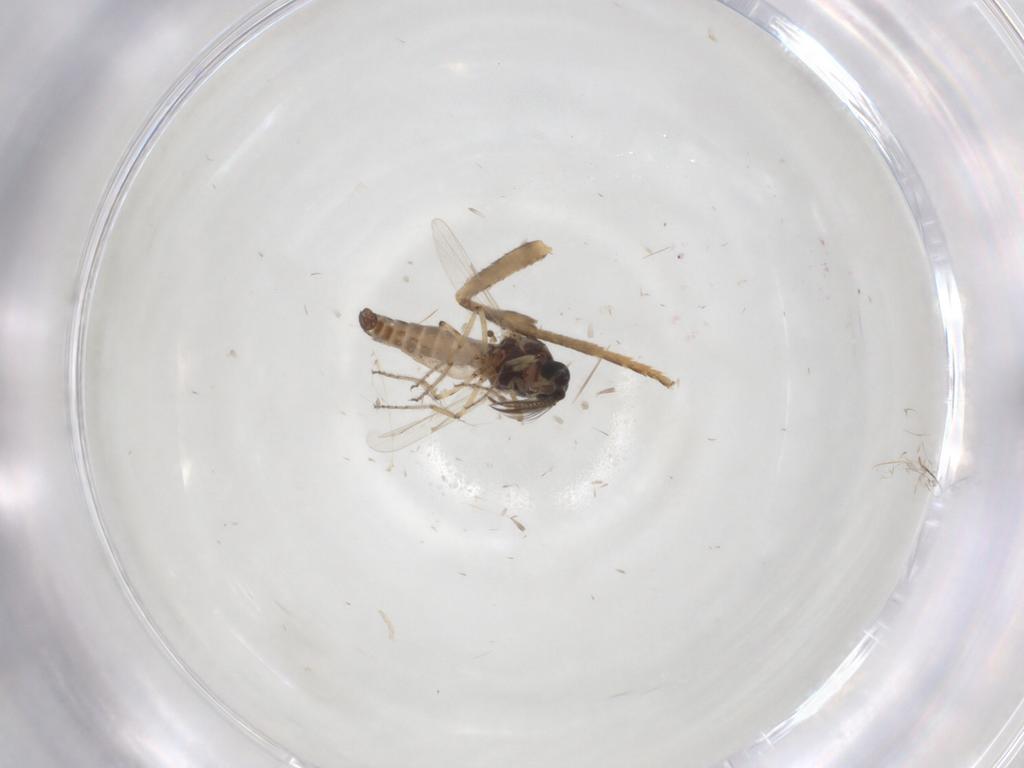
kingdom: Animalia
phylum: Arthropoda
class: Insecta
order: Diptera
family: Ceratopogonidae
